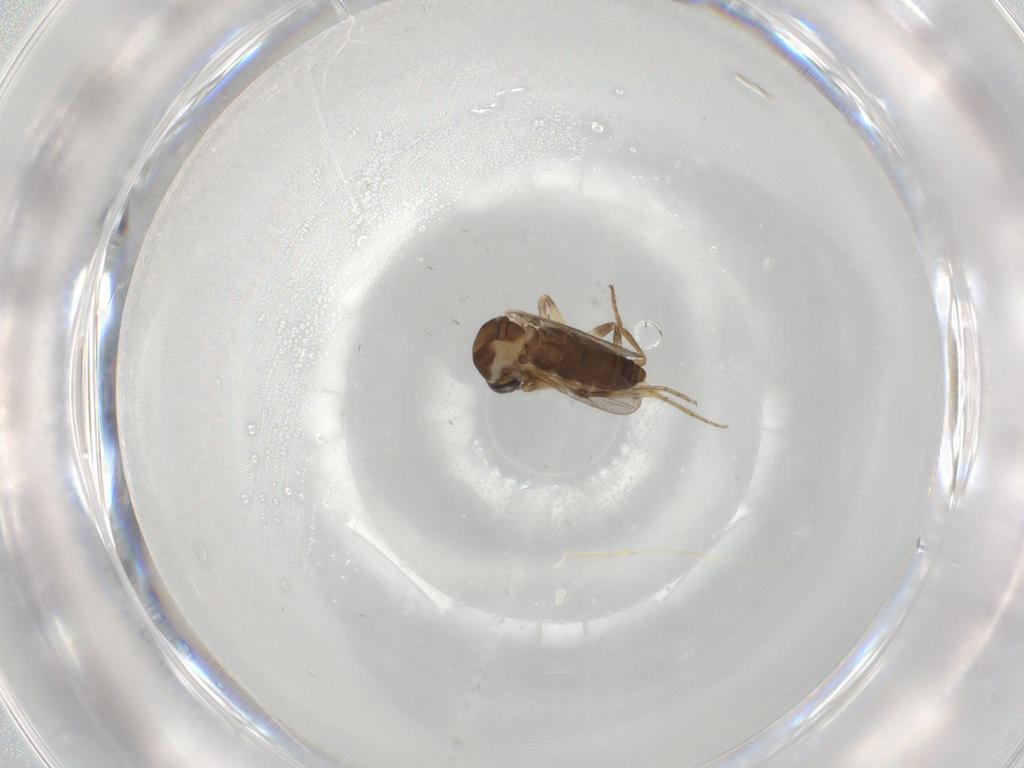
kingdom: Animalia
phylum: Arthropoda
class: Insecta
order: Diptera
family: Ceratopogonidae
